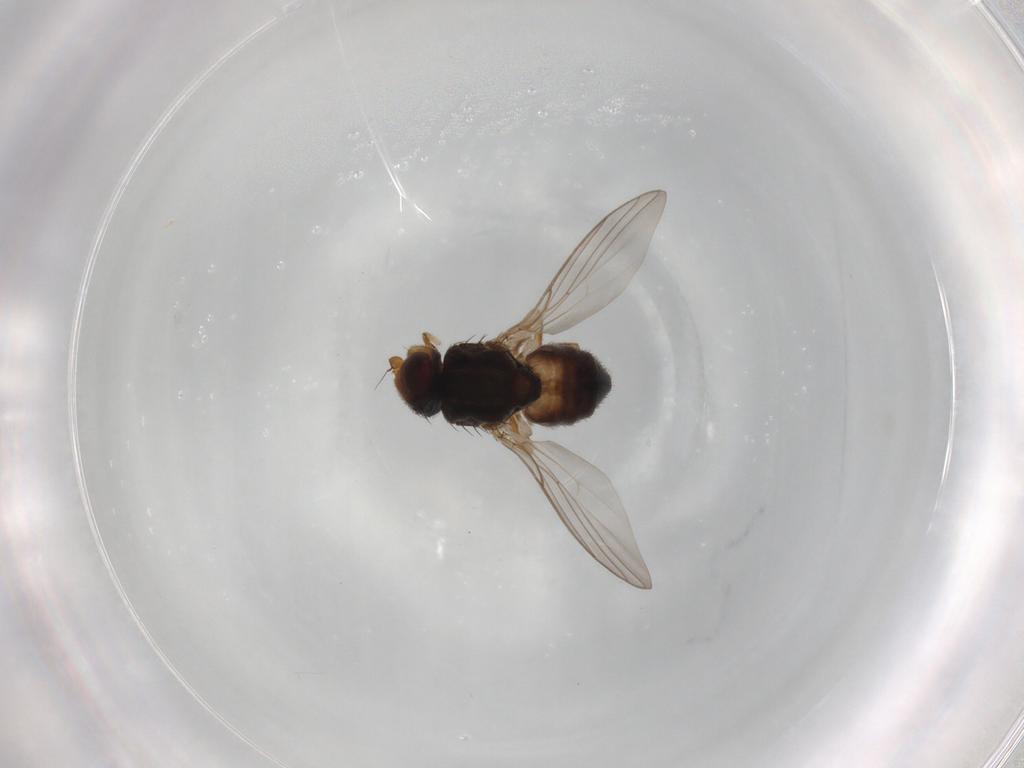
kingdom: Animalia
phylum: Arthropoda
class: Insecta
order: Diptera
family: Chloropidae
